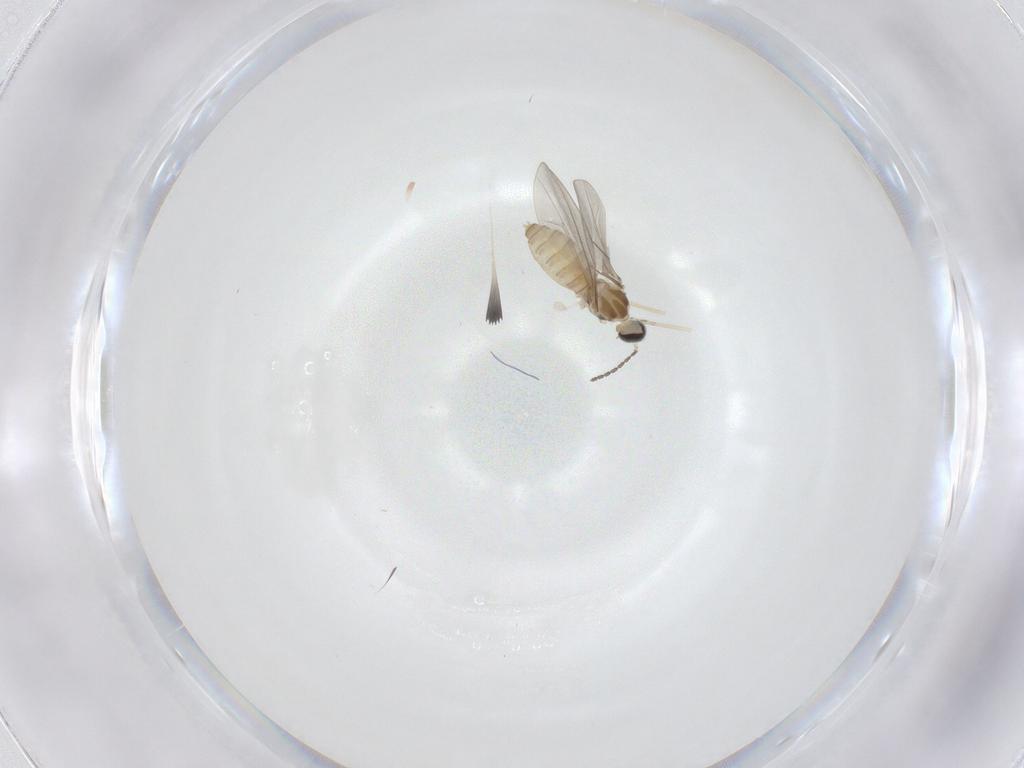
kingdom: Animalia
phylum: Arthropoda
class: Insecta
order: Diptera
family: Cecidomyiidae
